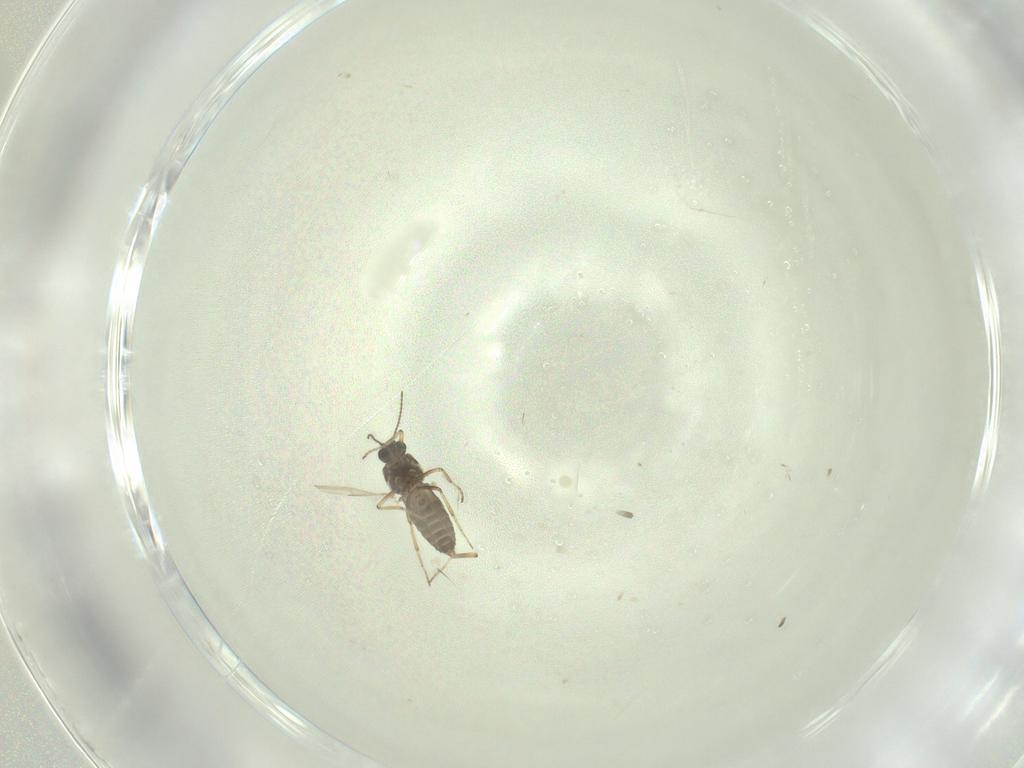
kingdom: Animalia
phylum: Arthropoda
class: Insecta
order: Diptera
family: Ceratopogonidae
